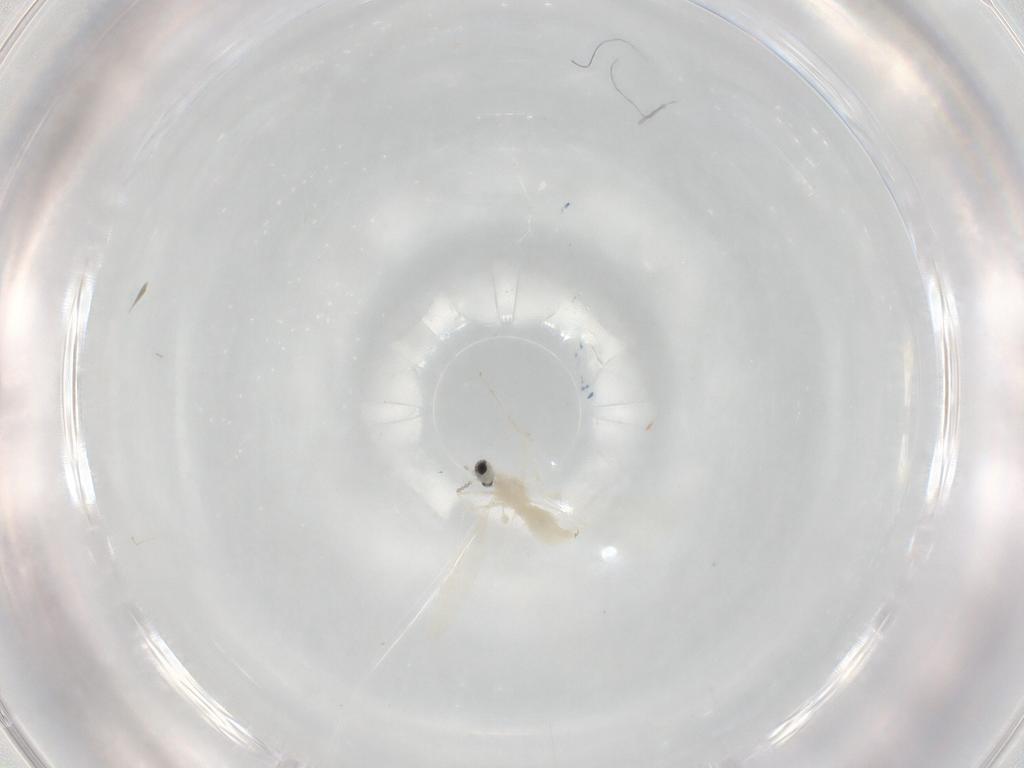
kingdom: Animalia
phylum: Arthropoda
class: Insecta
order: Diptera
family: Cecidomyiidae
